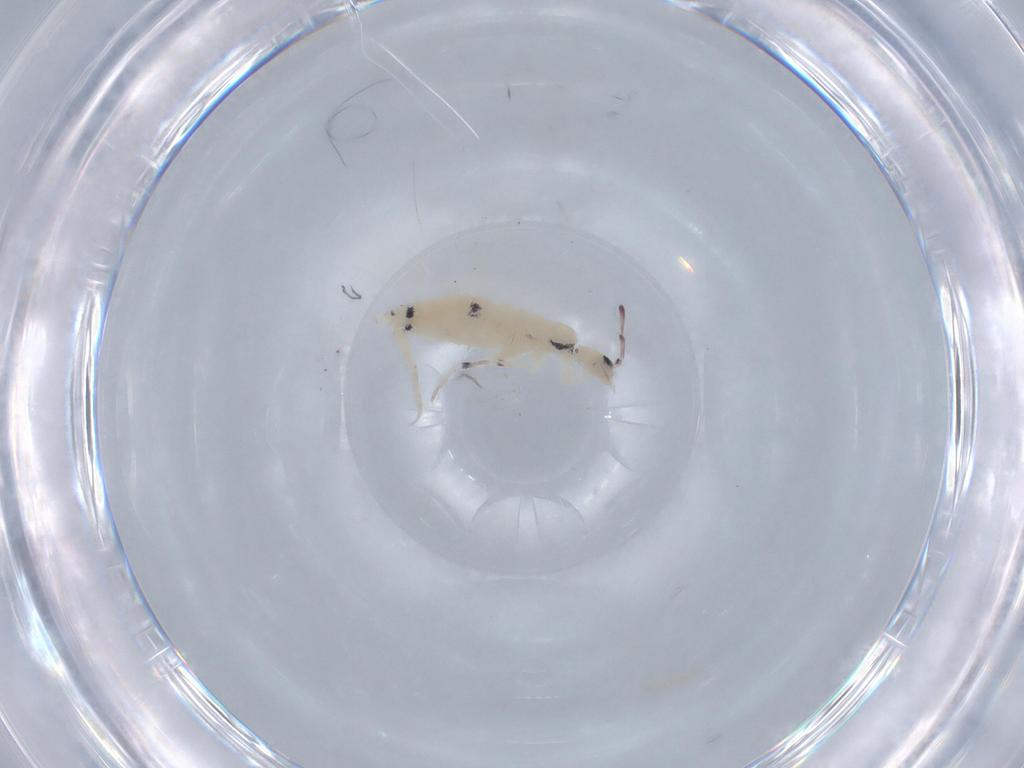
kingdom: Animalia
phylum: Arthropoda
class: Collembola
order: Poduromorpha
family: Hypogastruridae
